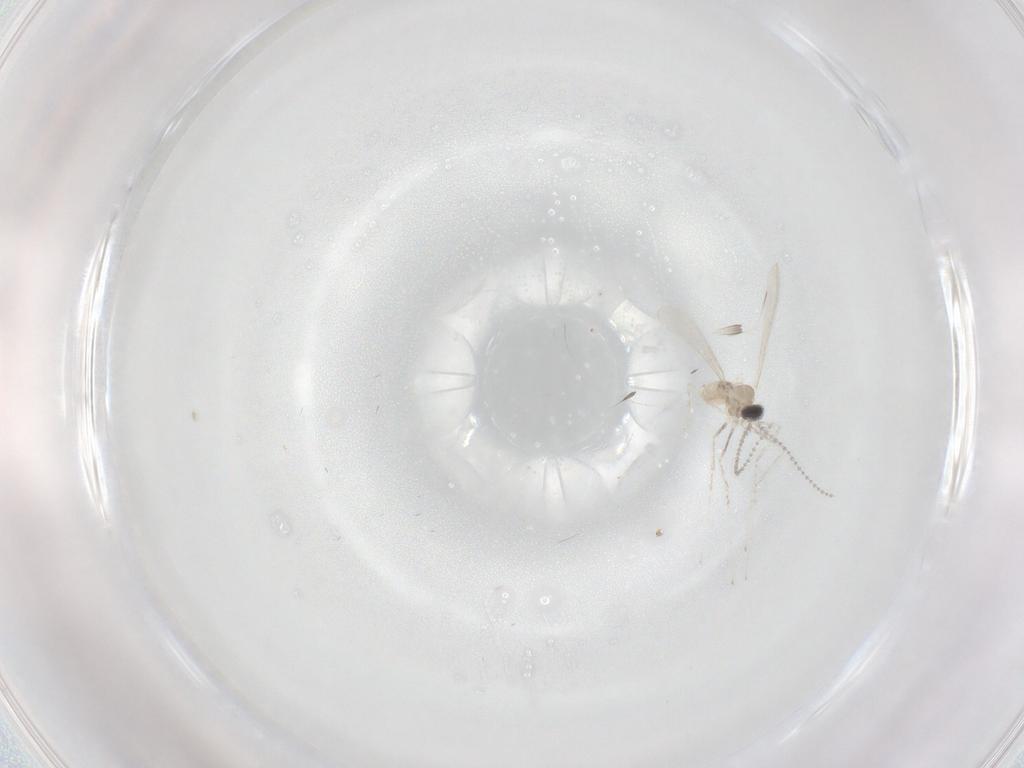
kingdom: Animalia
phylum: Arthropoda
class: Insecta
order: Diptera
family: Cecidomyiidae
